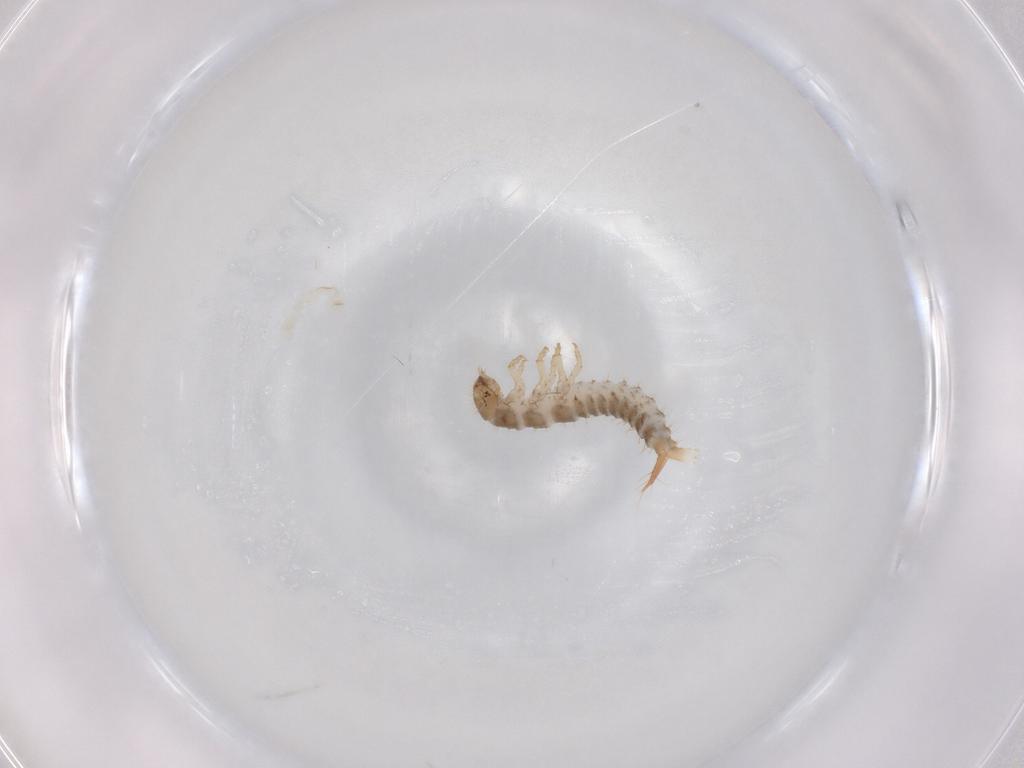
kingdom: Animalia
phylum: Arthropoda
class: Insecta
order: Coleoptera
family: Staphylinidae
